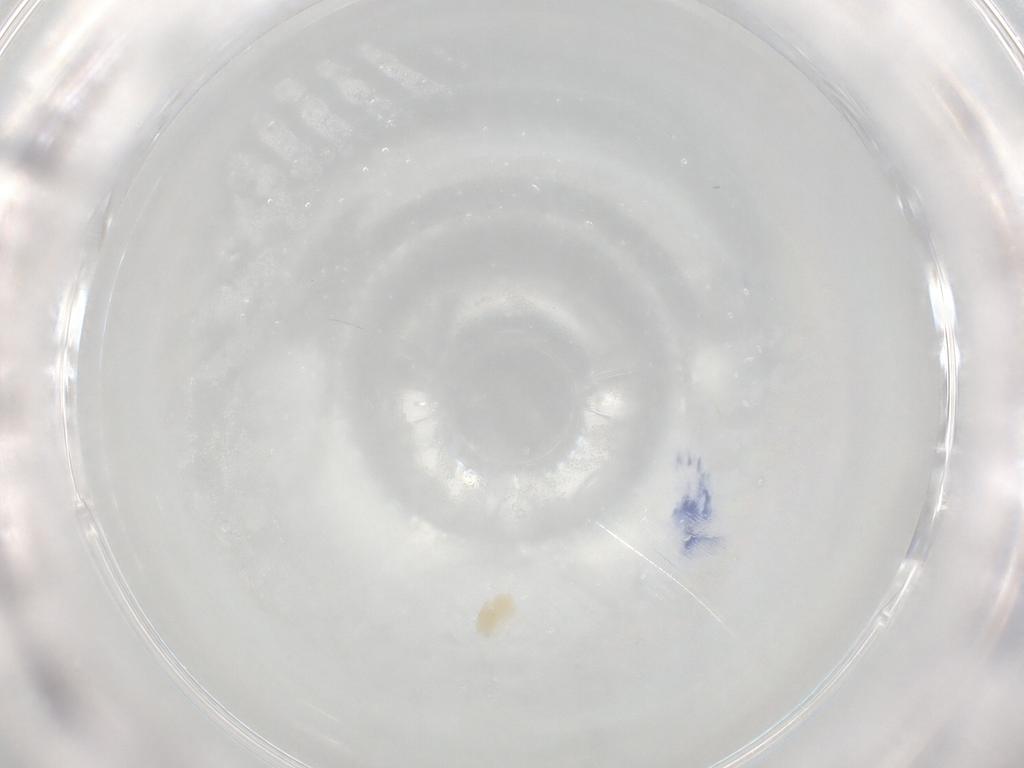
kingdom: Animalia
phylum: Arthropoda
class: Arachnida
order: Trombidiformes
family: Eupodidae
